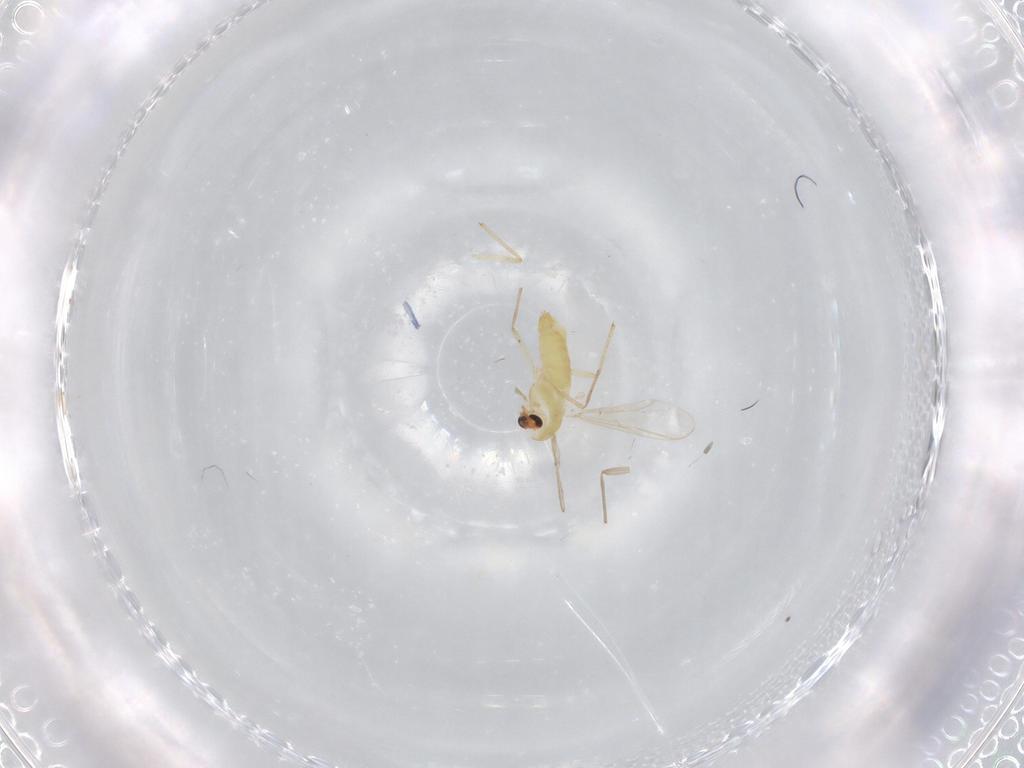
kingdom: Animalia
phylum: Arthropoda
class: Insecta
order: Diptera
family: Chironomidae
